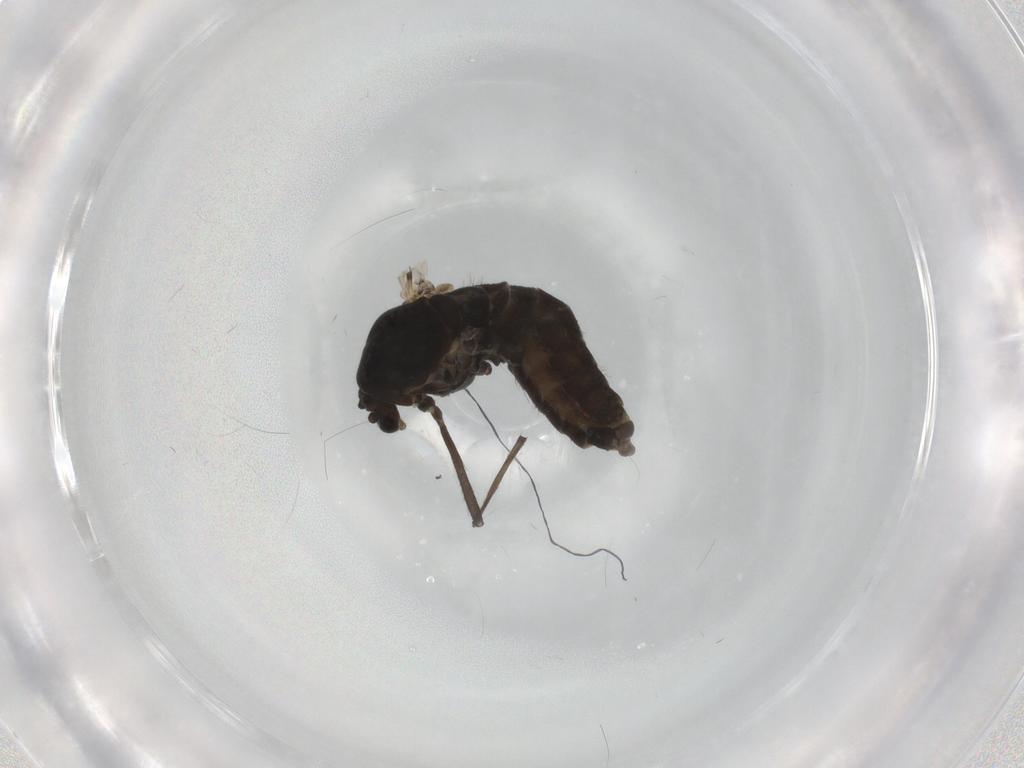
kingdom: Animalia
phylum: Arthropoda
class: Insecta
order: Diptera
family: Chironomidae
